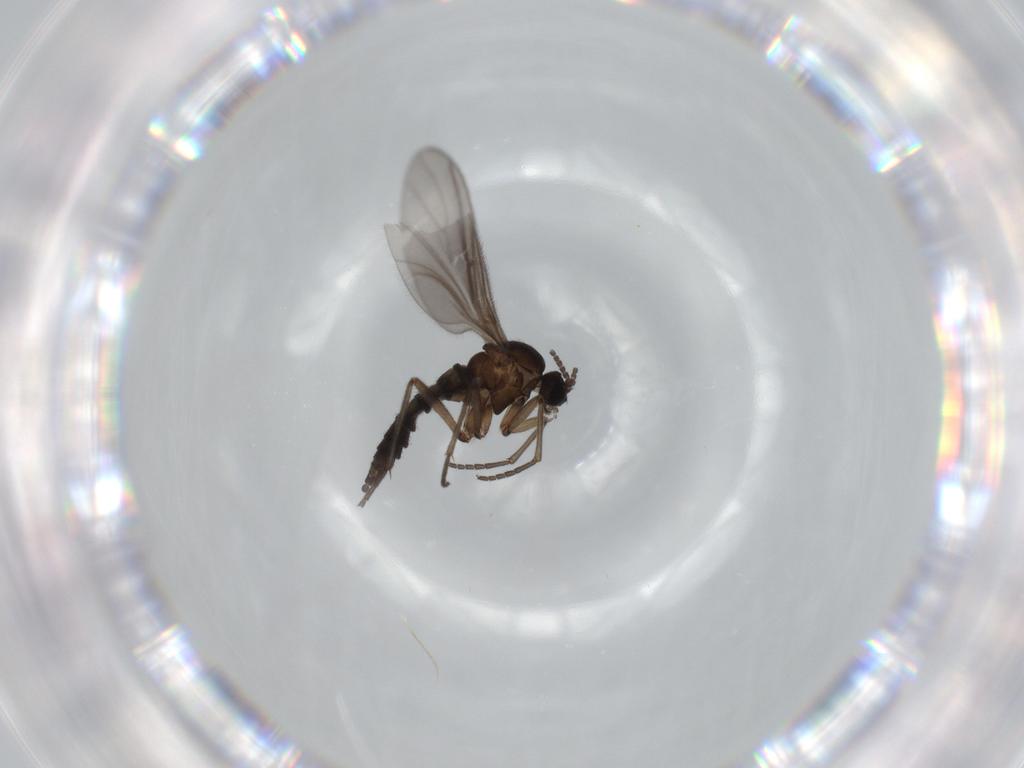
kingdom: Animalia
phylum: Arthropoda
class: Insecta
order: Diptera
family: Sciaridae
